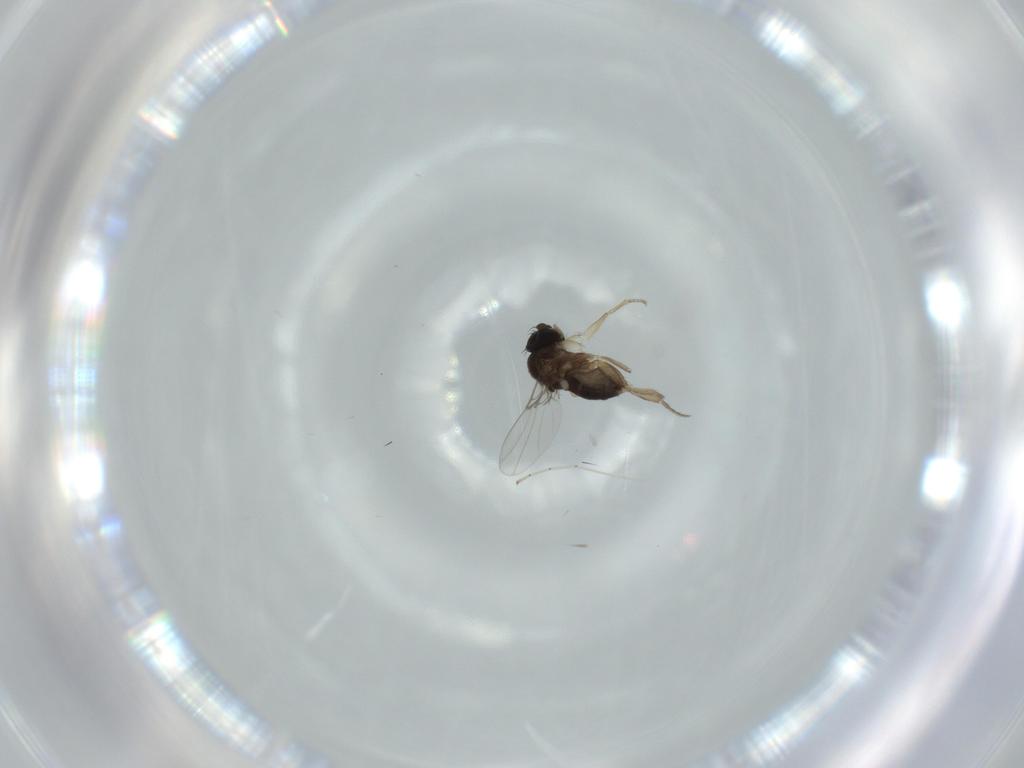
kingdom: Animalia
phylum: Arthropoda
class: Insecta
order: Diptera
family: Phoridae
